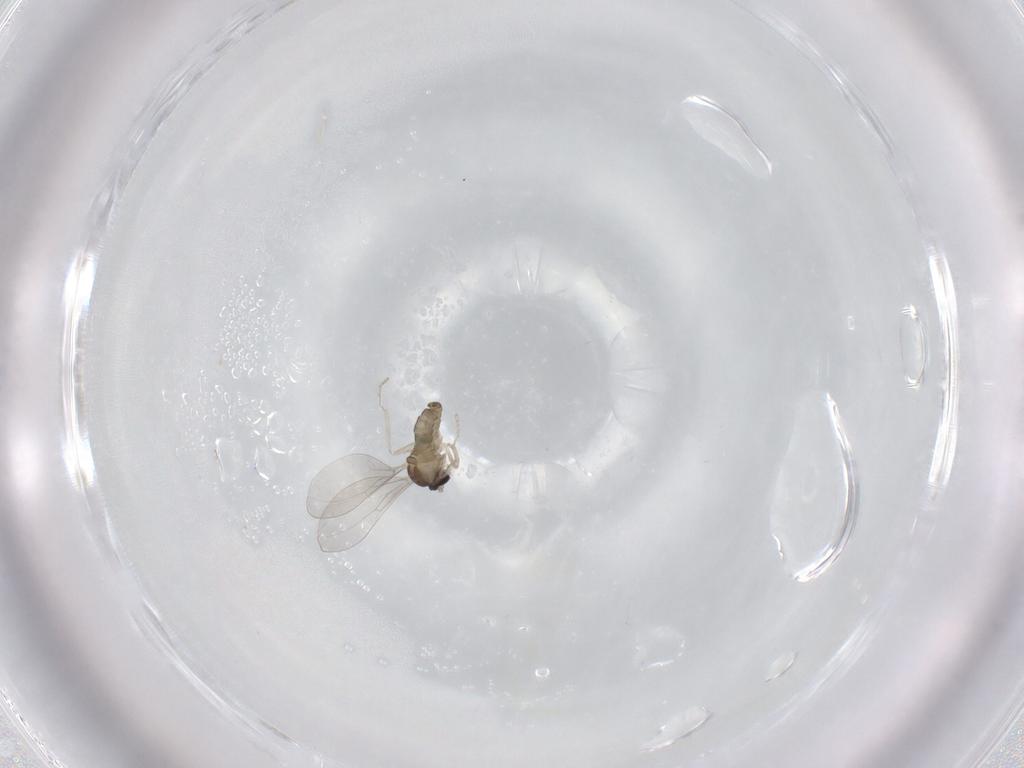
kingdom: Animalia
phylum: Arthropoda
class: Insecta
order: Diptera
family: Cecidomyiidae
